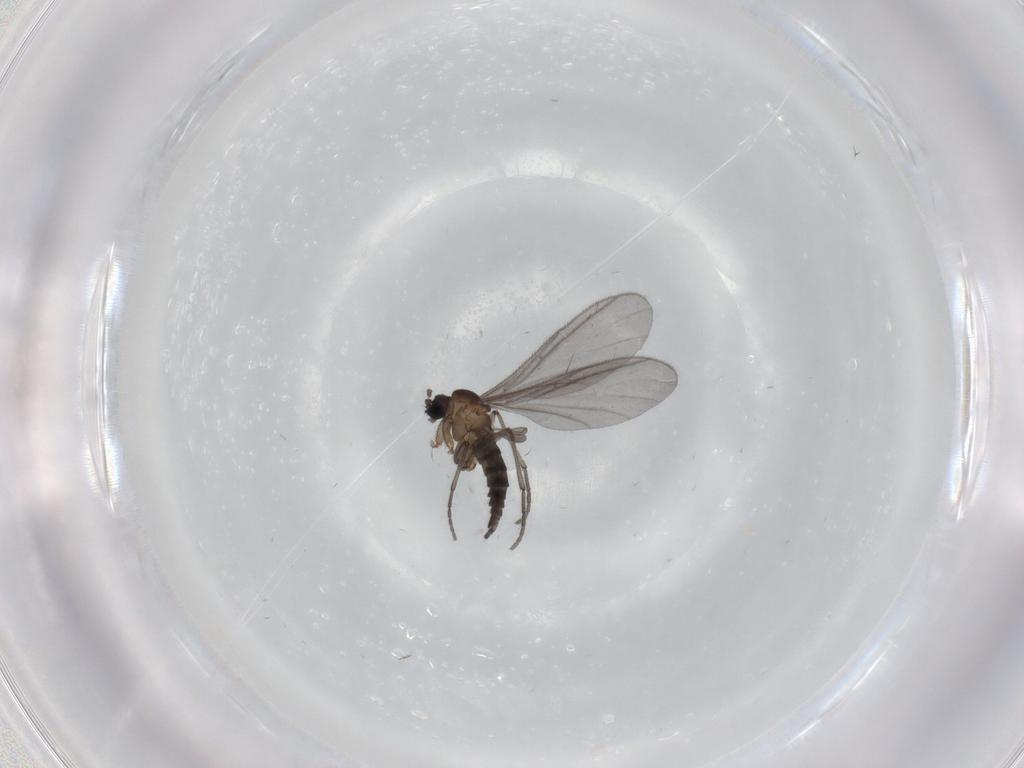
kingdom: Animalia
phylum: Arthropoda
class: Insecta
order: Diptera
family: Sciaridae
